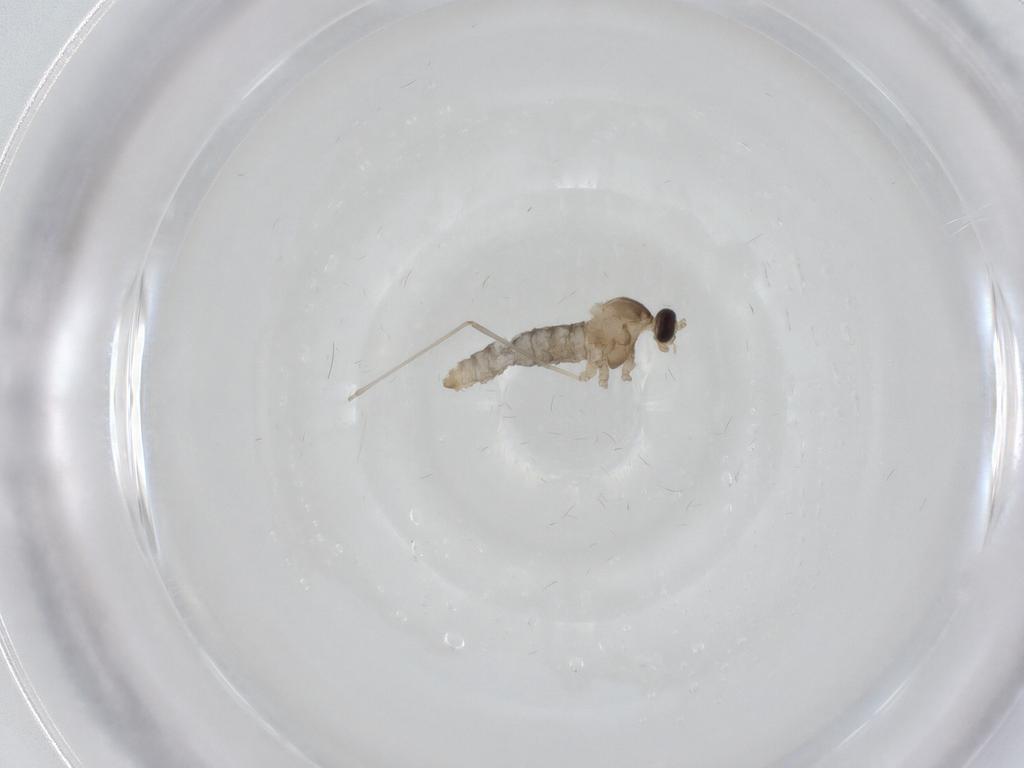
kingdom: Animalia
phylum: Arthropoda
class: Insecta
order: Diptera
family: Cecidomyiidae
